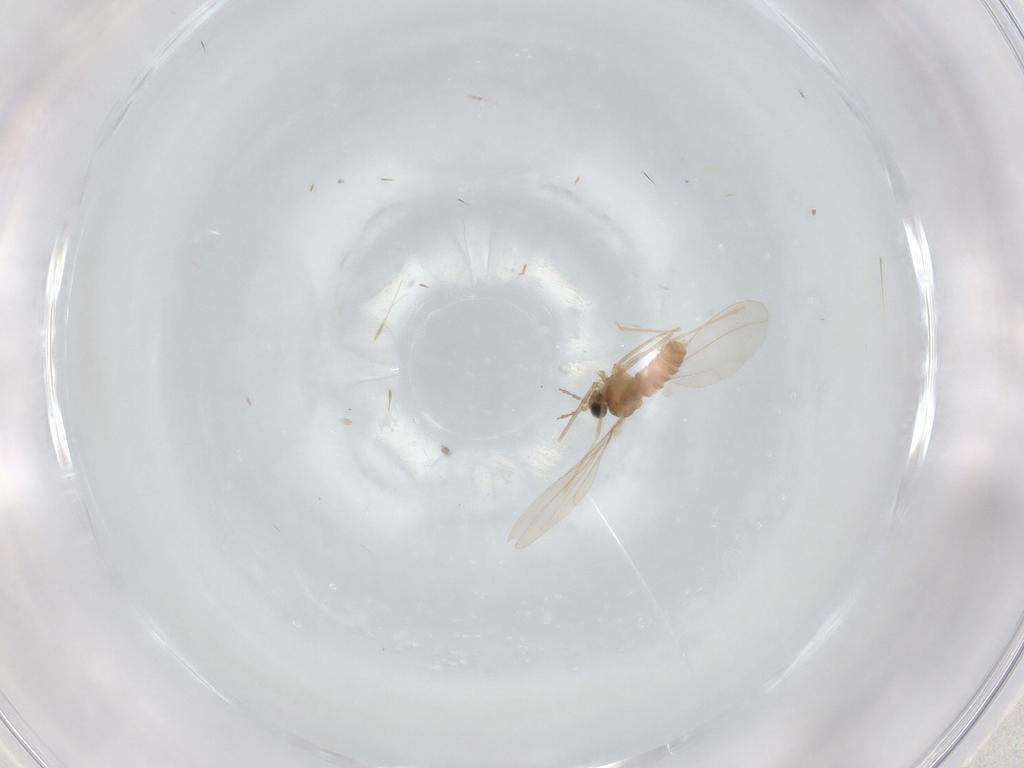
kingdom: Animalia
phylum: Arthropoda
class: Insecta
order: Diptera
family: Cecidomyiidae
